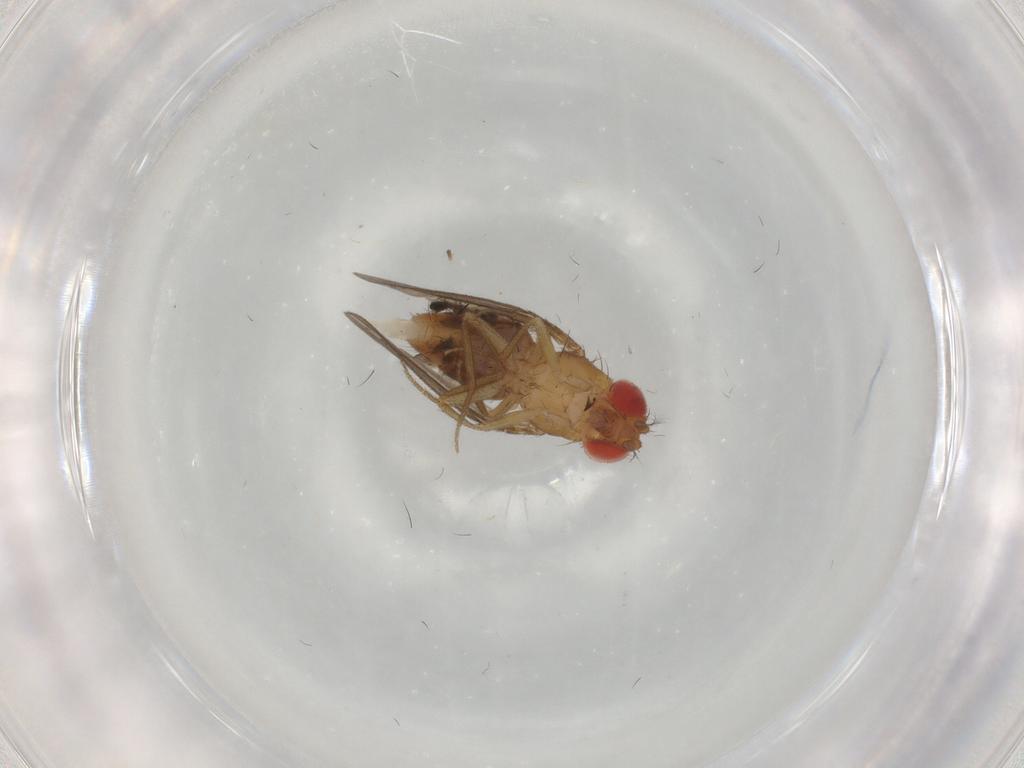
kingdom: Animalia
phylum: Arthropoda
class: Insecta
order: Diptera
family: Drosophilidae
